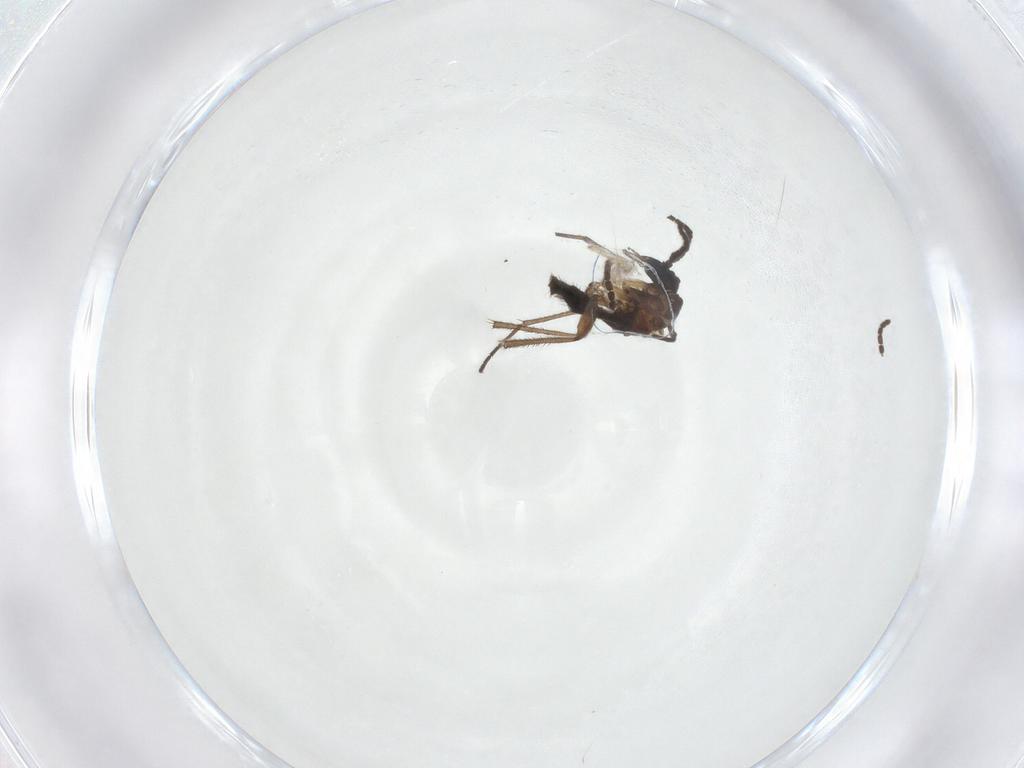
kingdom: Animalia
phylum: Arthropoda
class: Insecta
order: Diptera
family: Sciaridae
